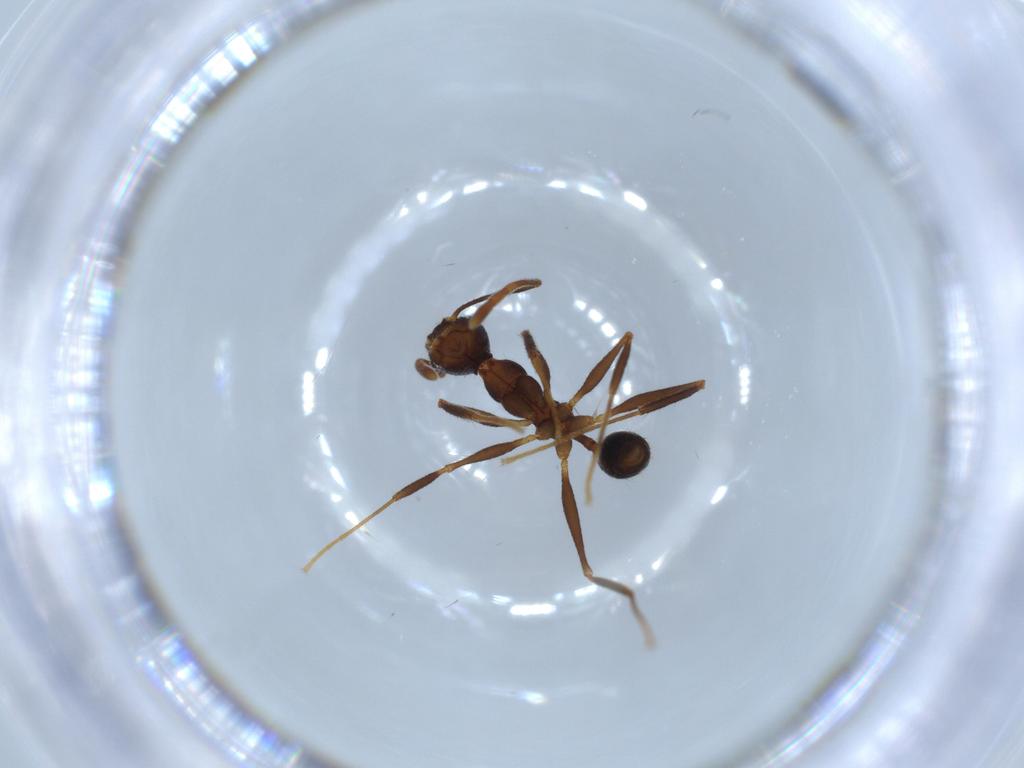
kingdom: Animalia
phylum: Arthropoda
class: Insecta
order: Hymenoptera
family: Formicidae
